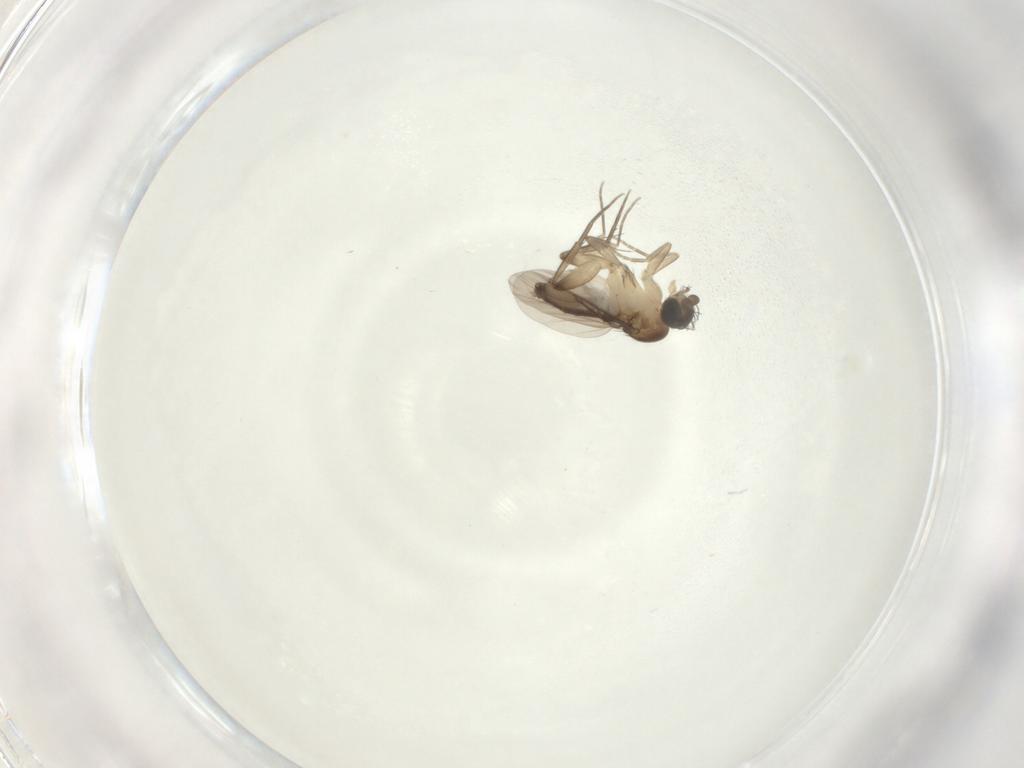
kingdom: Animalia
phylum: Arthropoda
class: Insecta
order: Diptera
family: Phoridae
